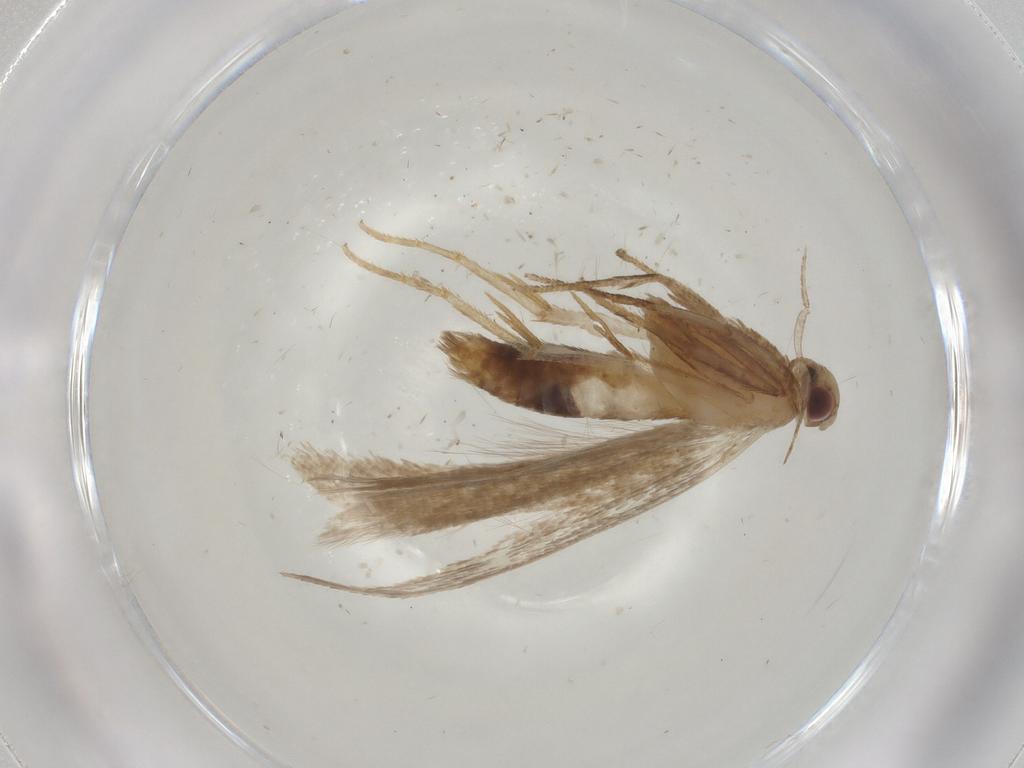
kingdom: Animalia
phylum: Arthropoda
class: Insecta
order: Lepidoptera
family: Gelechiidae
